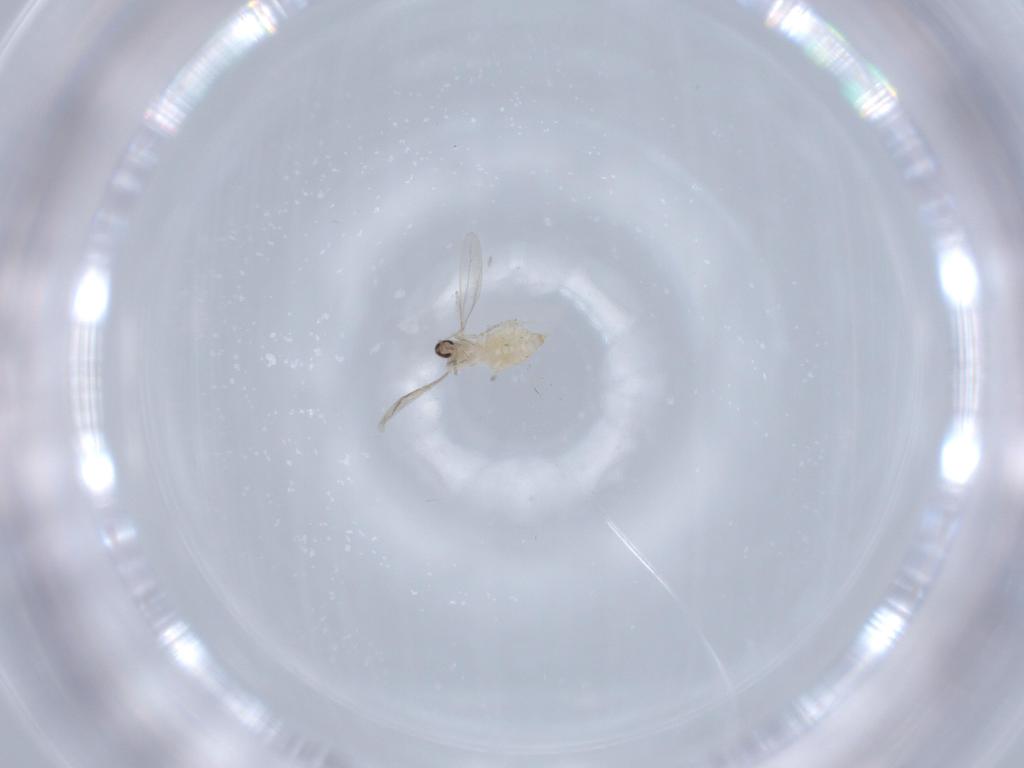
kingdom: Animalia
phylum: Arthropoda
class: Insecta
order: Diptera
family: Cecidomyiidae
